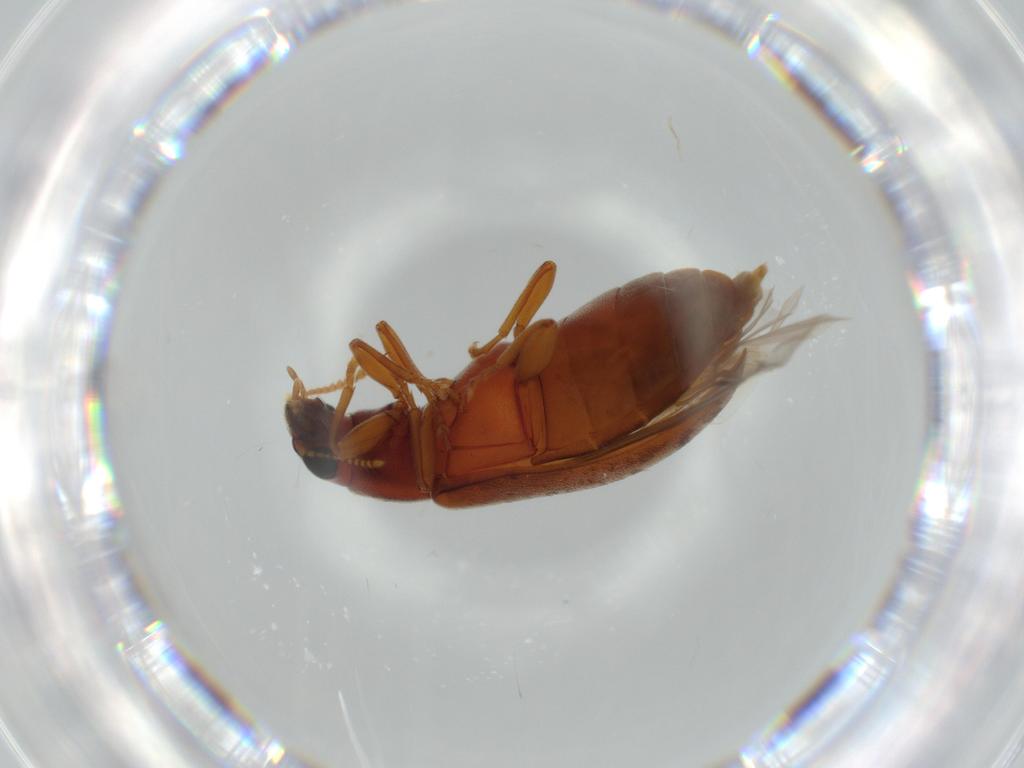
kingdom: Animalia
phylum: Arthropoda
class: Insecta
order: Coleoptera
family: Mycteridae
